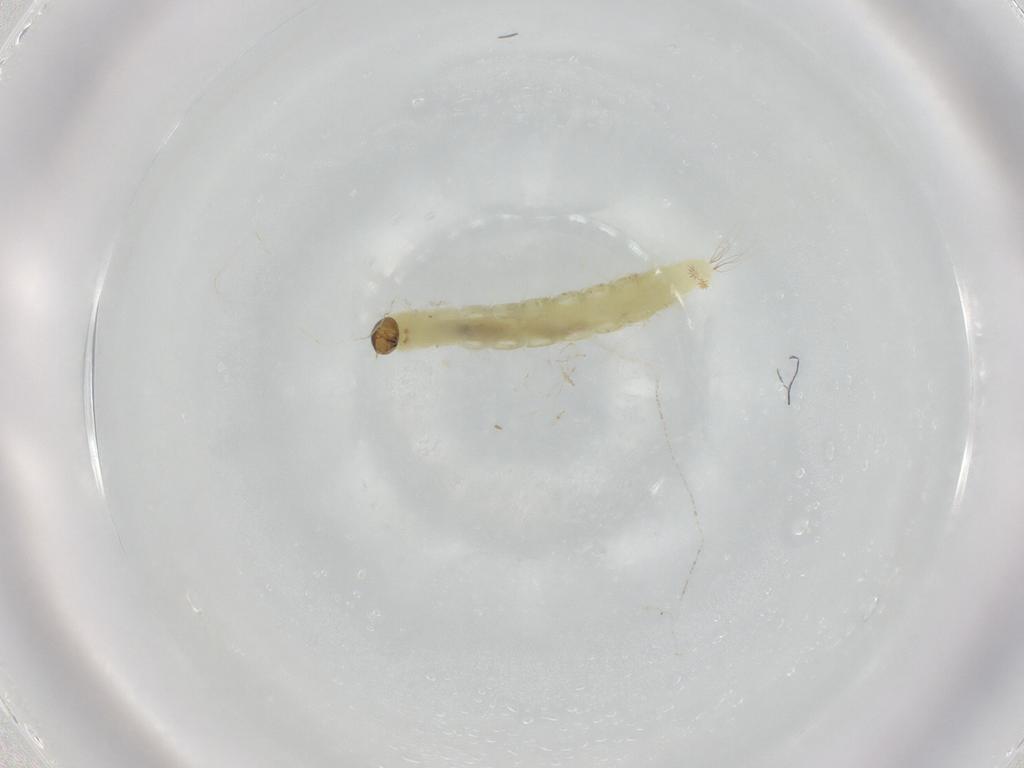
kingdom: Animalia
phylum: Arthropoda
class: Insecta
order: Diptera
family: Chironomidae
